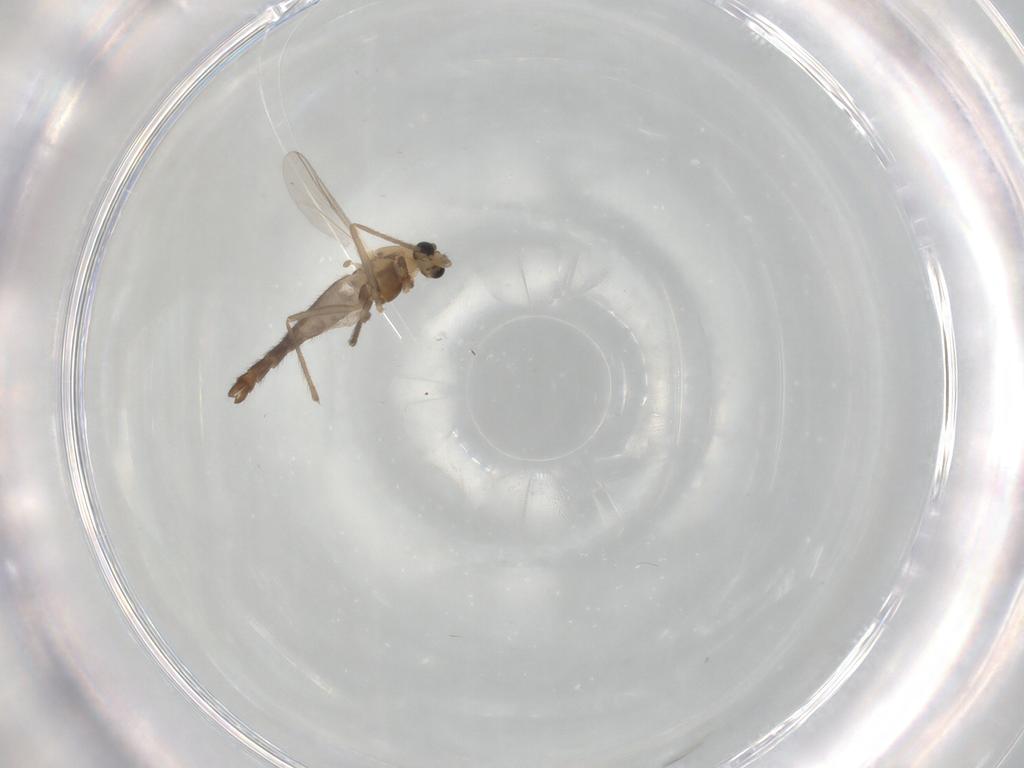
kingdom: Animalia
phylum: Arthropoda
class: Insecta
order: Diptera
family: Chironomidae
